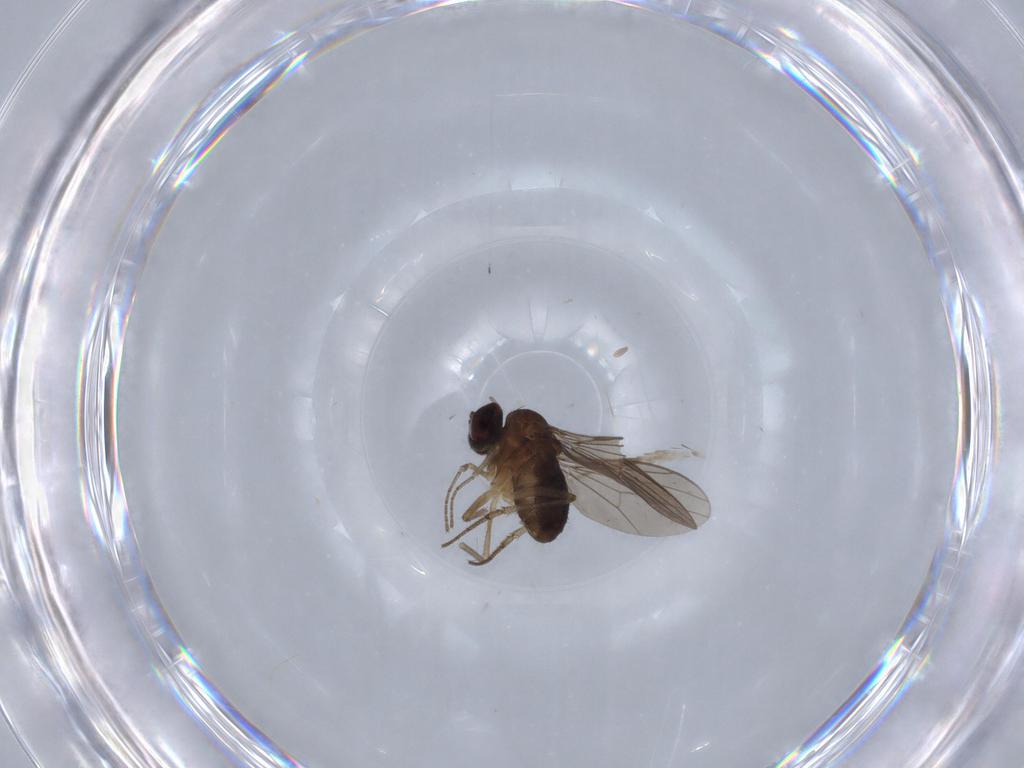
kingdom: Animalia
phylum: Arthropoda
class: Insecta
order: Diptera
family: Dolichopodidae
